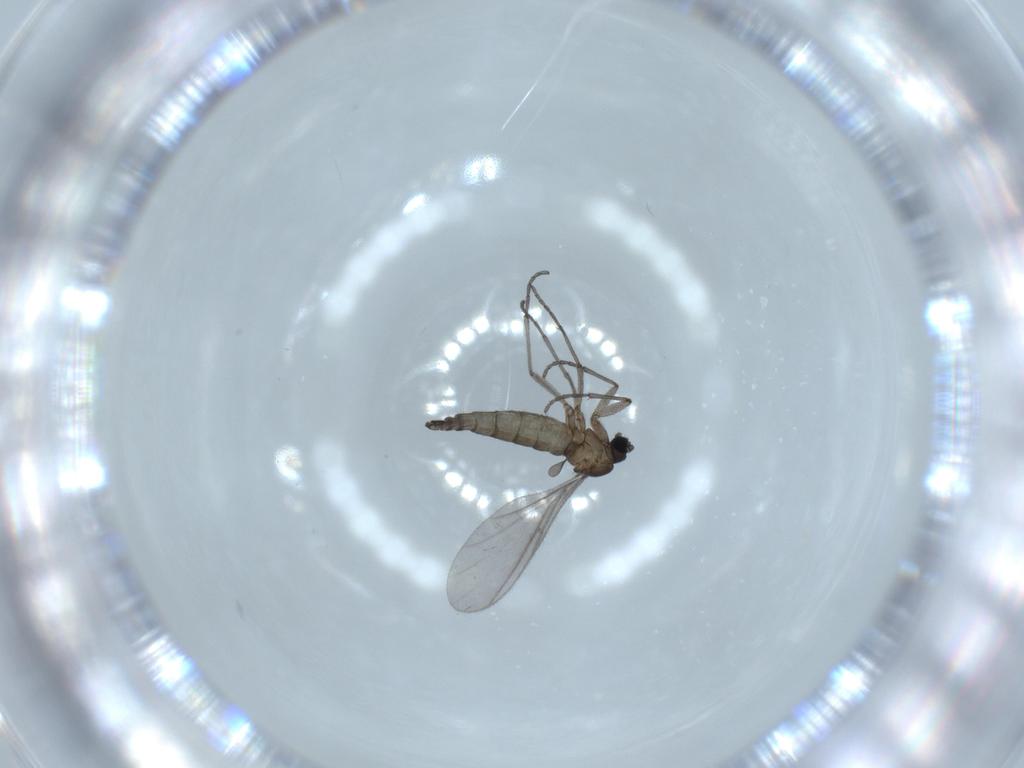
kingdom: Animalia
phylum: Arthropoda
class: Insecta
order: Diptera
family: Sciaridae
